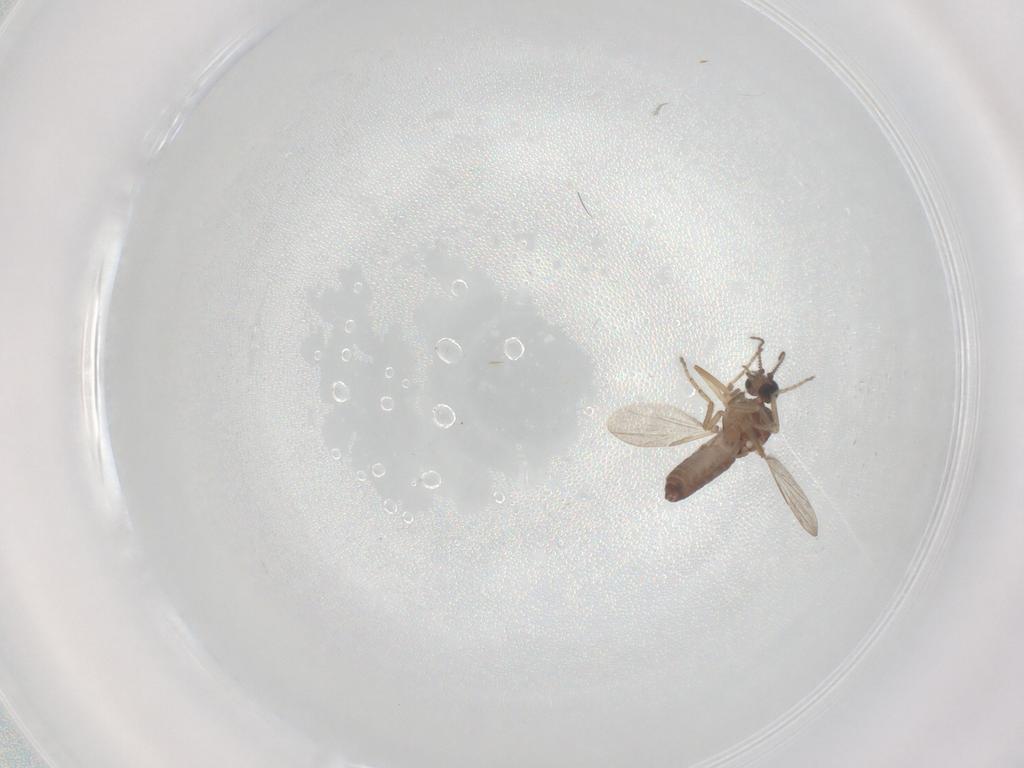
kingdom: Animalia
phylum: Arthropoda
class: Insecta
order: Diptera
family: Ceratopogonidae
